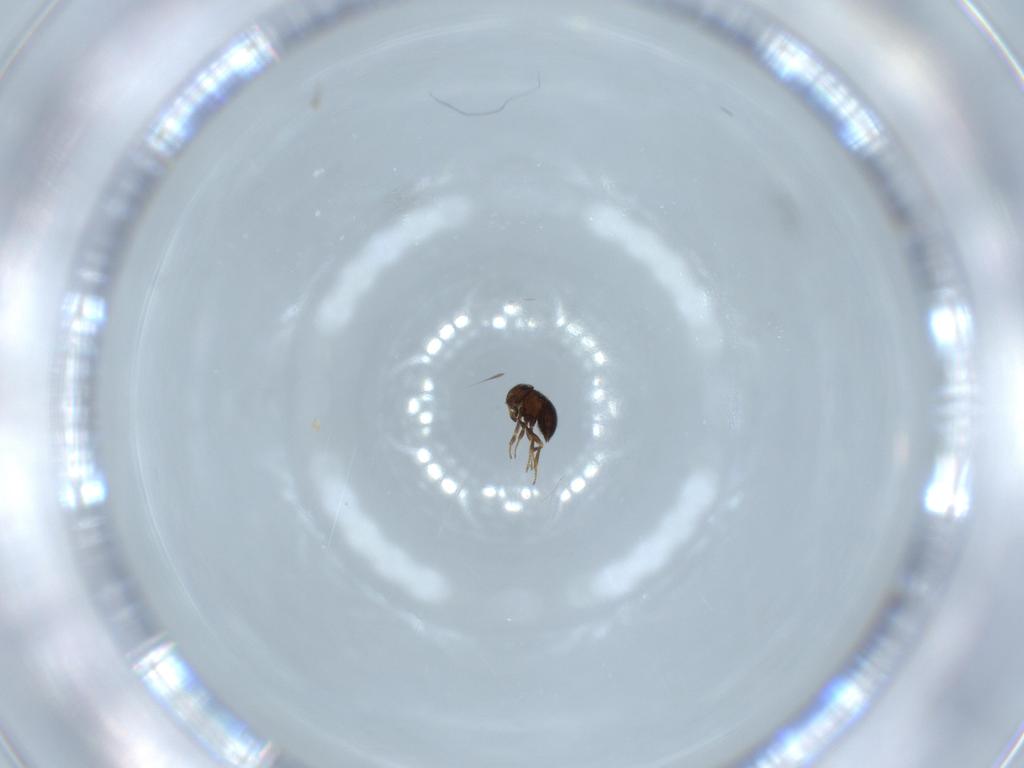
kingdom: Animalia
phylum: Arthropoda
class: Insecta
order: Hymenoptera
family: Scelionidae
